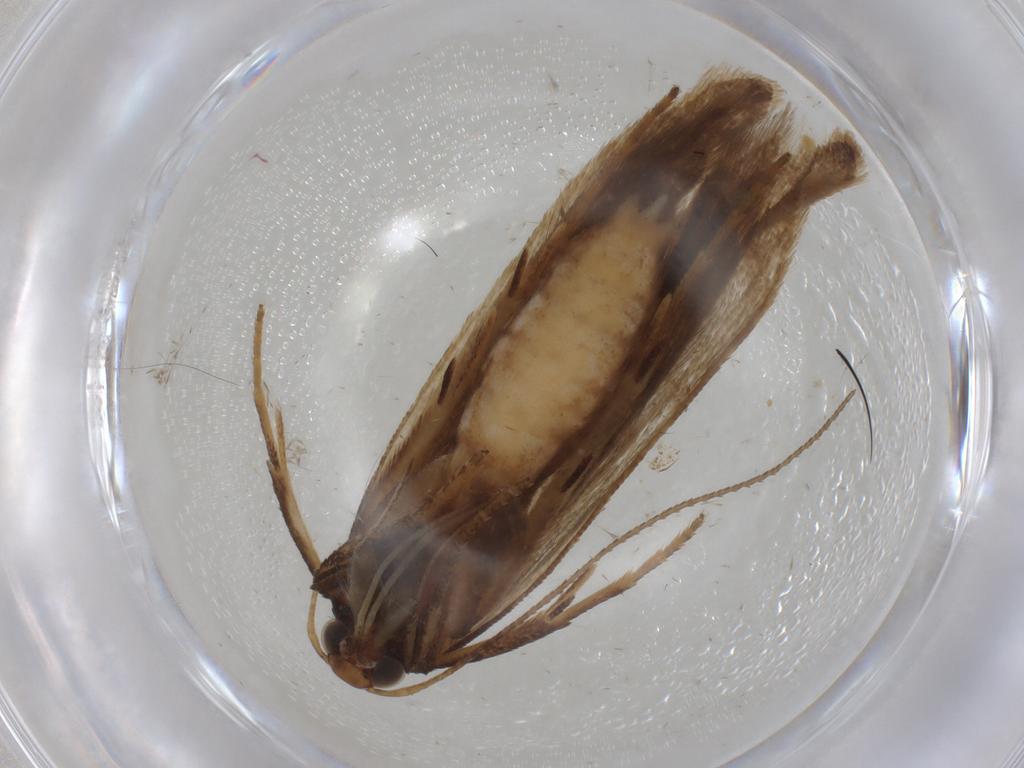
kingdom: Animalia
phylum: Arthropoda
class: Insecta
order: Lepidoptera
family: Gelechiidae
